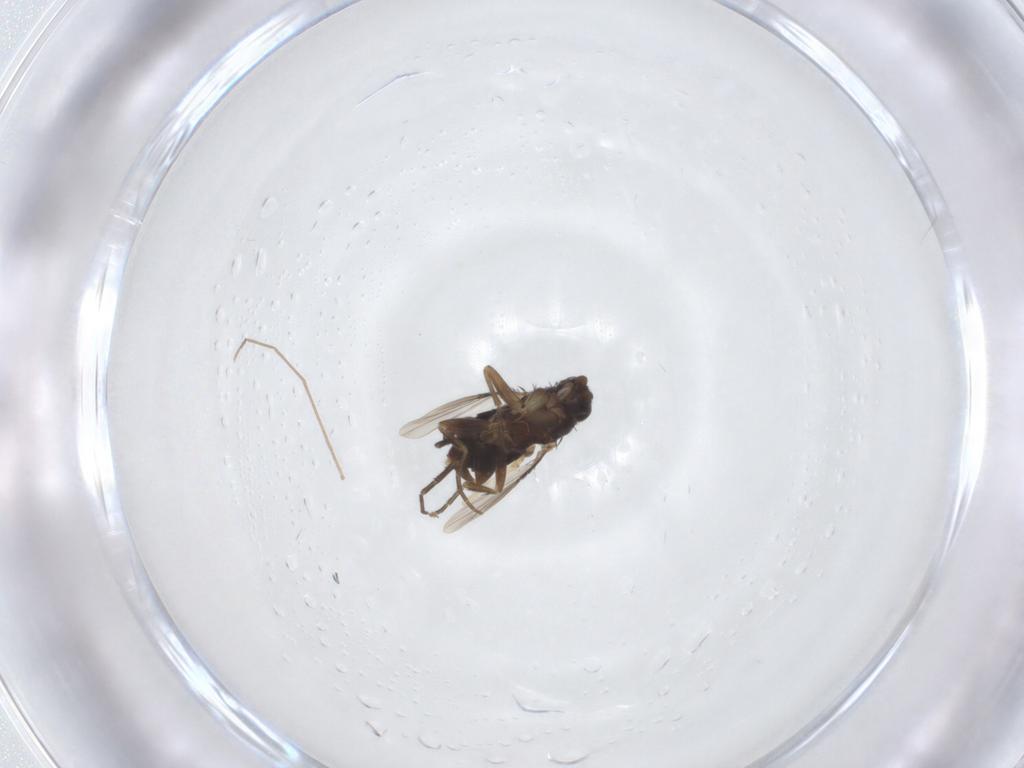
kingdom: Animalia
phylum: Arthropoda
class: Insecta
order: Diptera
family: Phoridae
